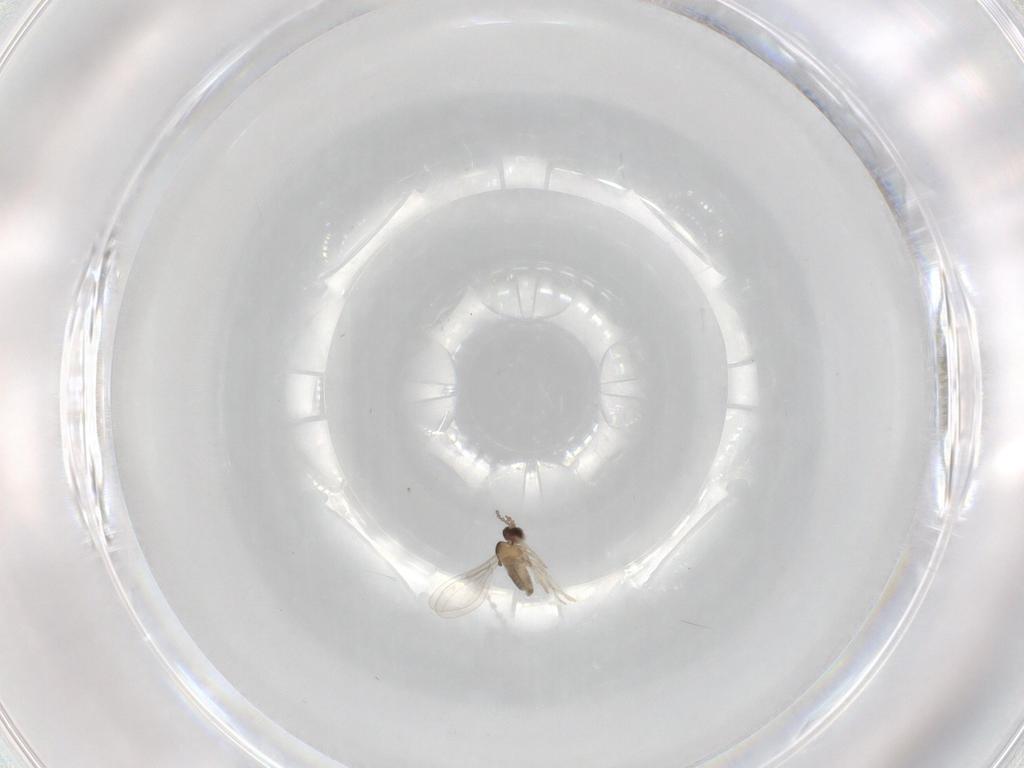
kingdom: Animalia
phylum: Arthropoda
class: Insecta
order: Diptera
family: Cecidomyiidae
